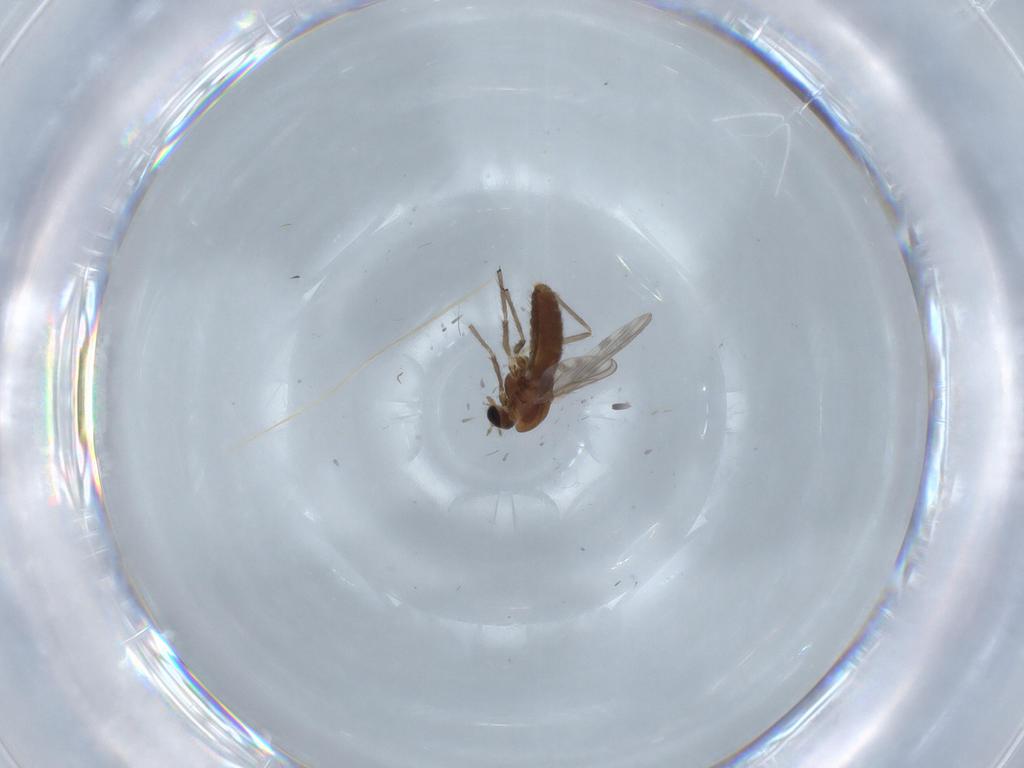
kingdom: Animalia
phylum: Arthropoda
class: Insecta
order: Diptera
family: Chironomidae
